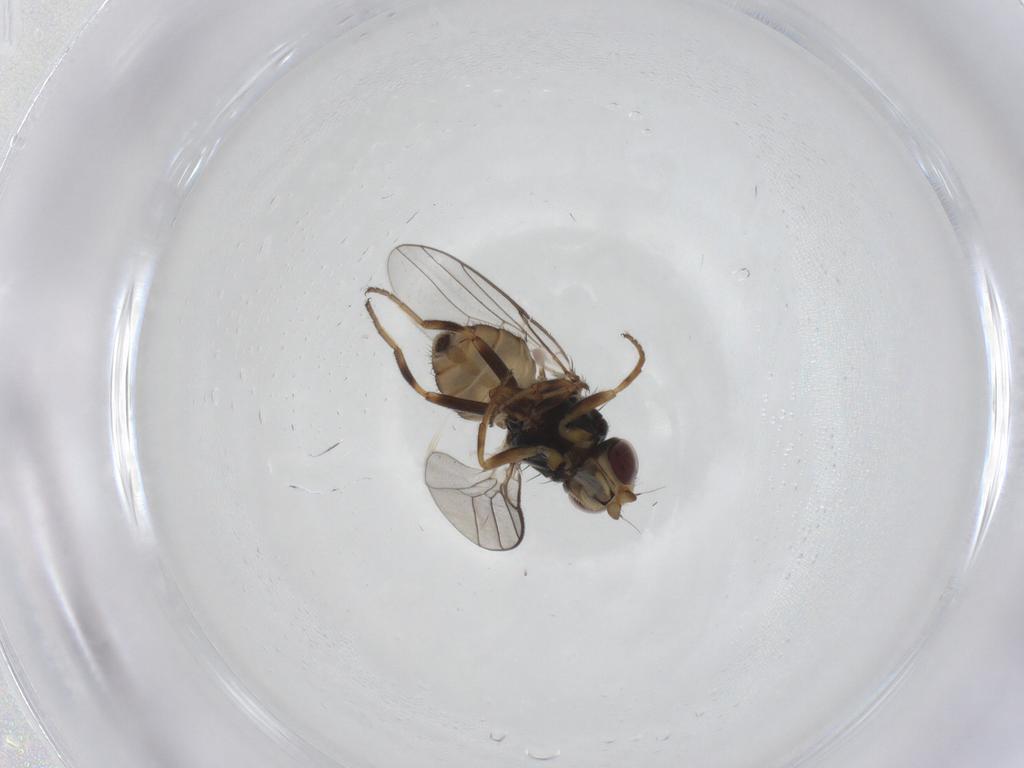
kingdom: Animalia
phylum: Arthropoda
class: Insecta
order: Diptera
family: Chloropidae
